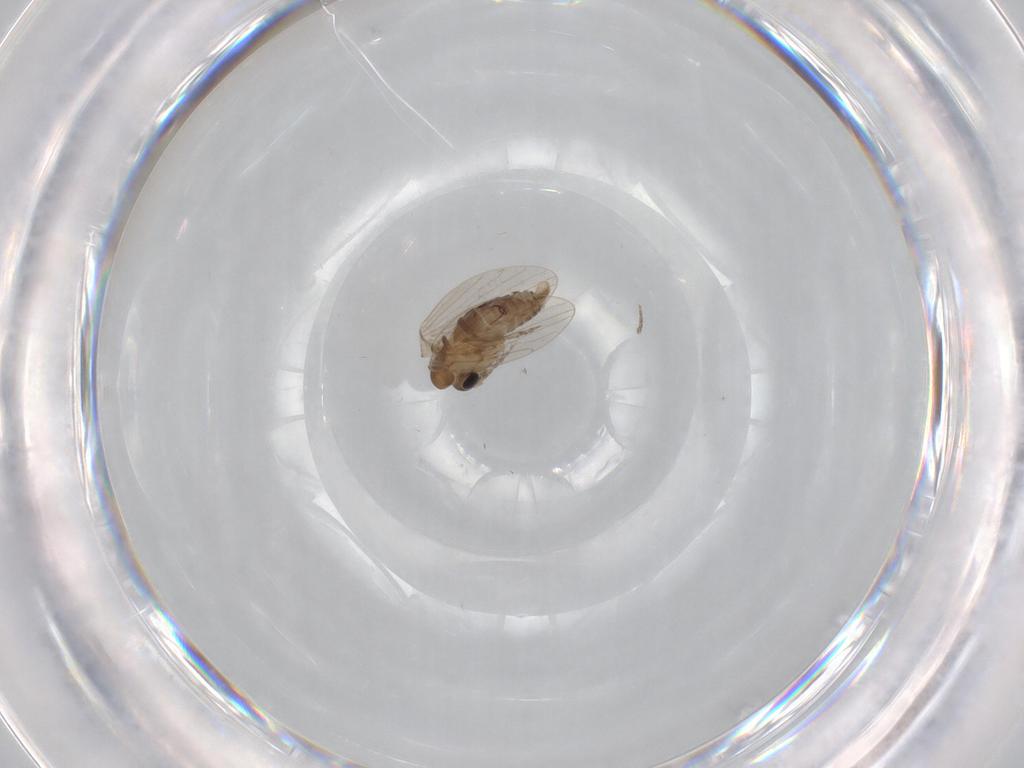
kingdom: Animalia
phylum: Arthropoda
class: Insecta
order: Diptera
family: Psychodidae
